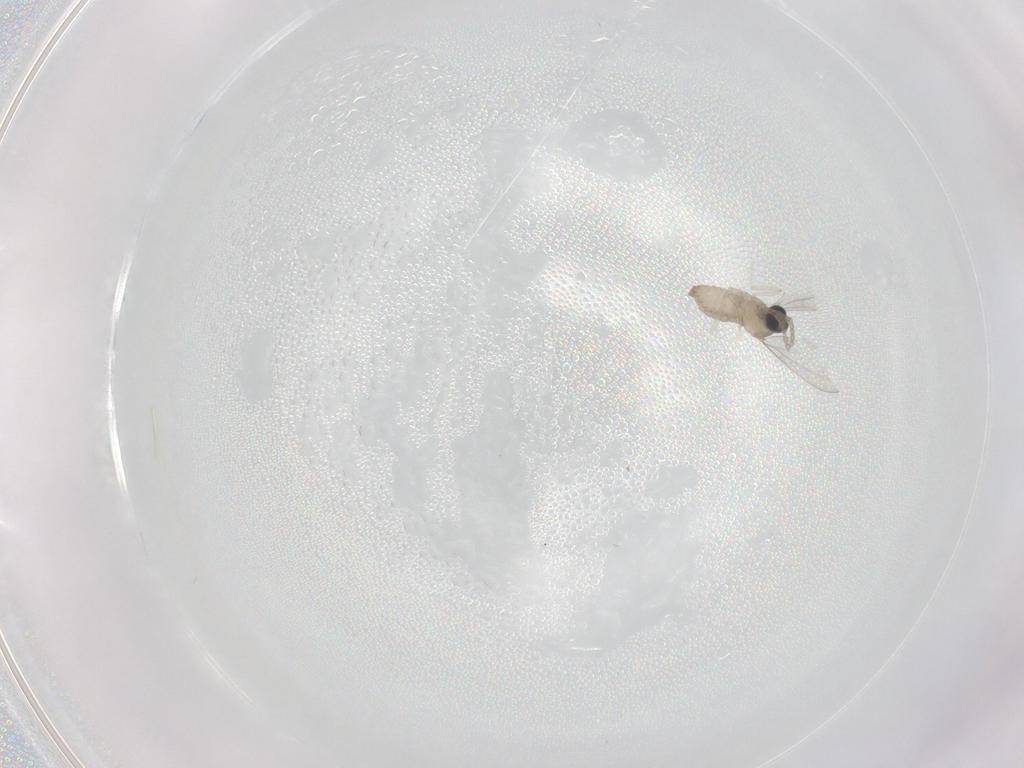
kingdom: Animalia
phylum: Arthropoda
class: Insecta
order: Diptera
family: Cecidomyiidae
